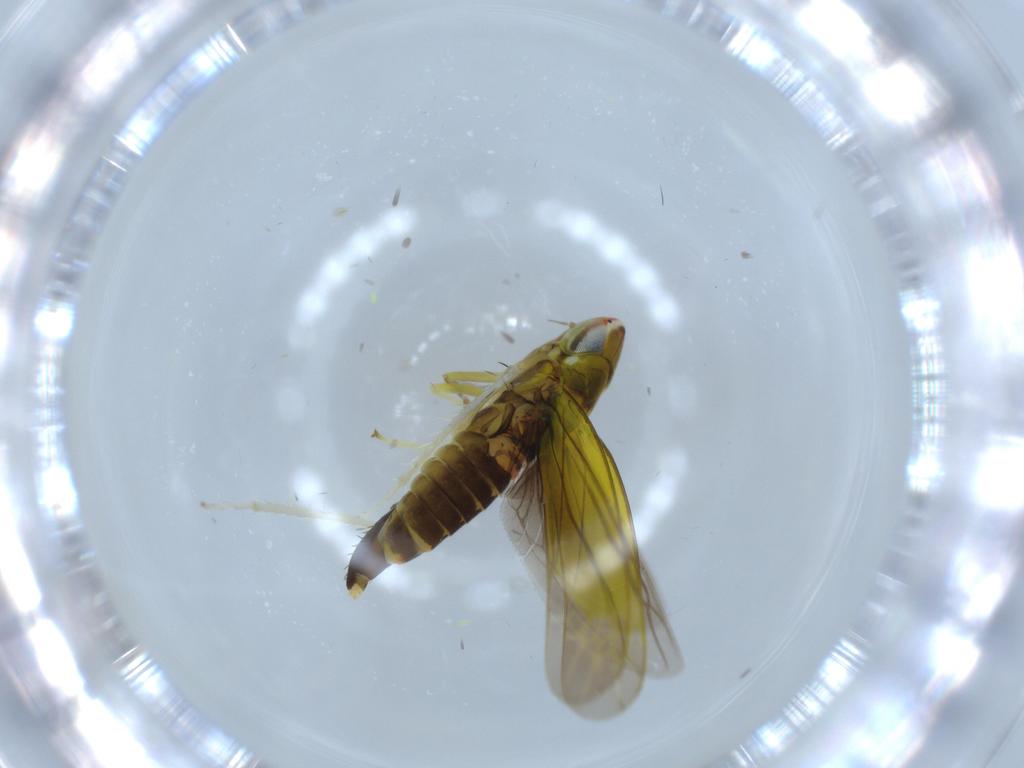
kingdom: Animalia
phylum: Arthropoda
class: Insecta
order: Hemiptera
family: Cicadellidae
